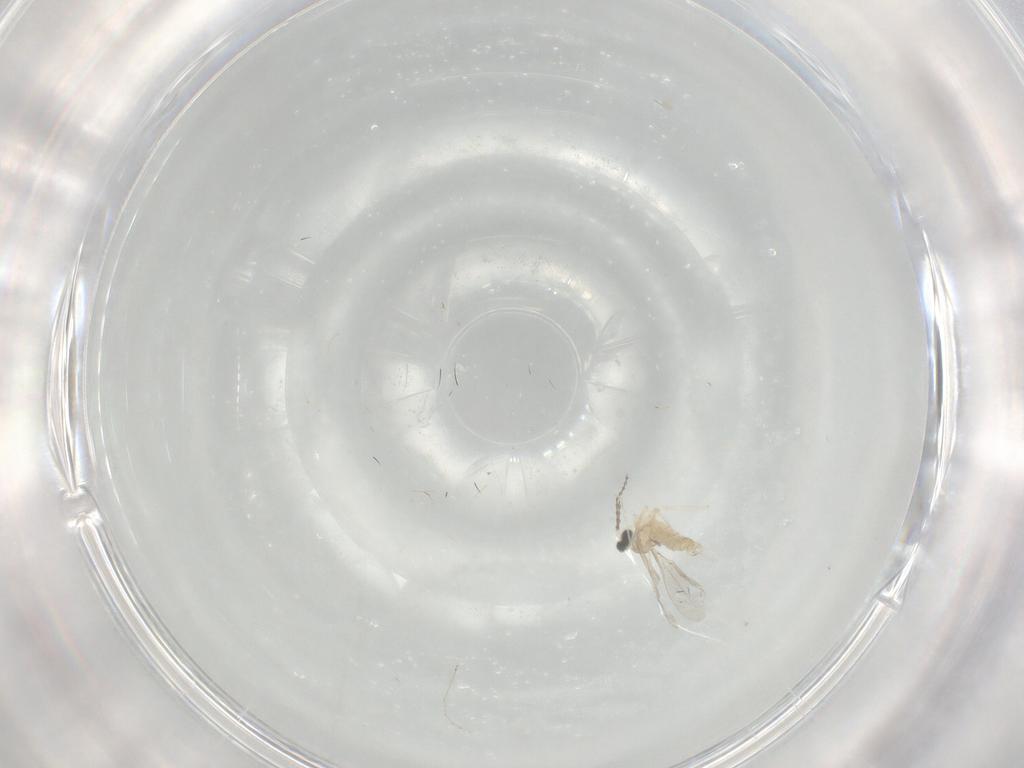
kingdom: Animalia
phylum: Arthropoda
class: Insecta
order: Diptera
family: Cecidomyiidae
